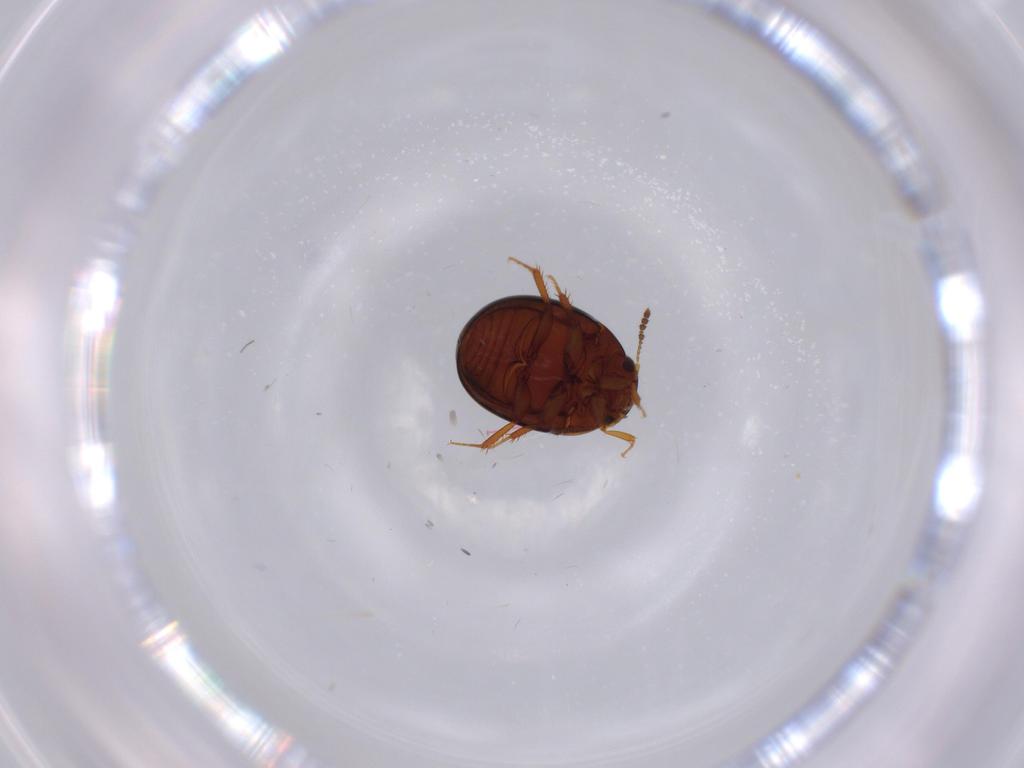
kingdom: Animalia
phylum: Arthropoda
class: Insecta
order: Coleoptera
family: Leiodidae
